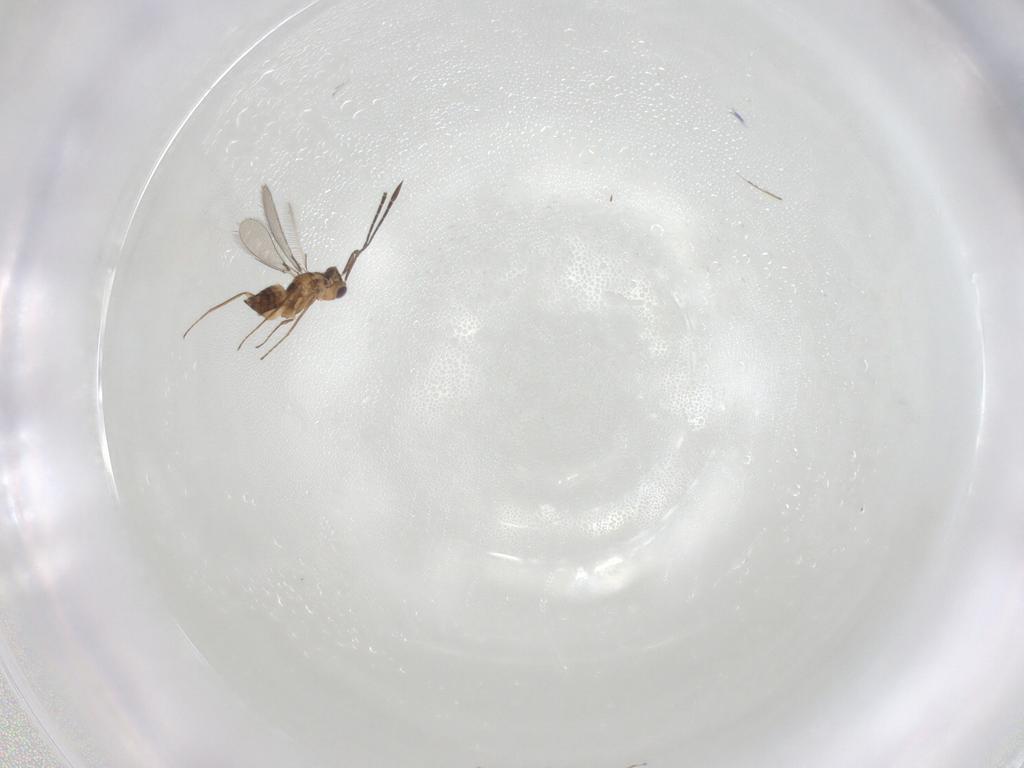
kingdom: Animalia
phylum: Arthropoda
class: Insecta
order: Hymenoptera
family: Mymaridae
